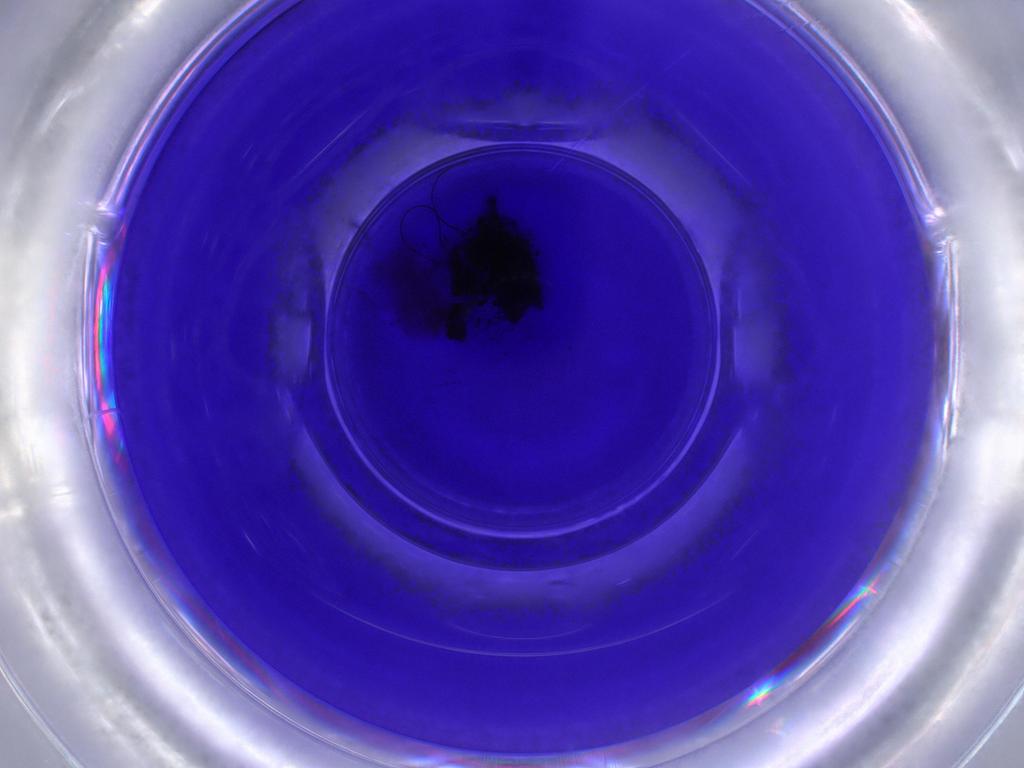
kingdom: Animalia
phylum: Arthropoda
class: Insecta
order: Hemiptera
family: Acanaloniidae
